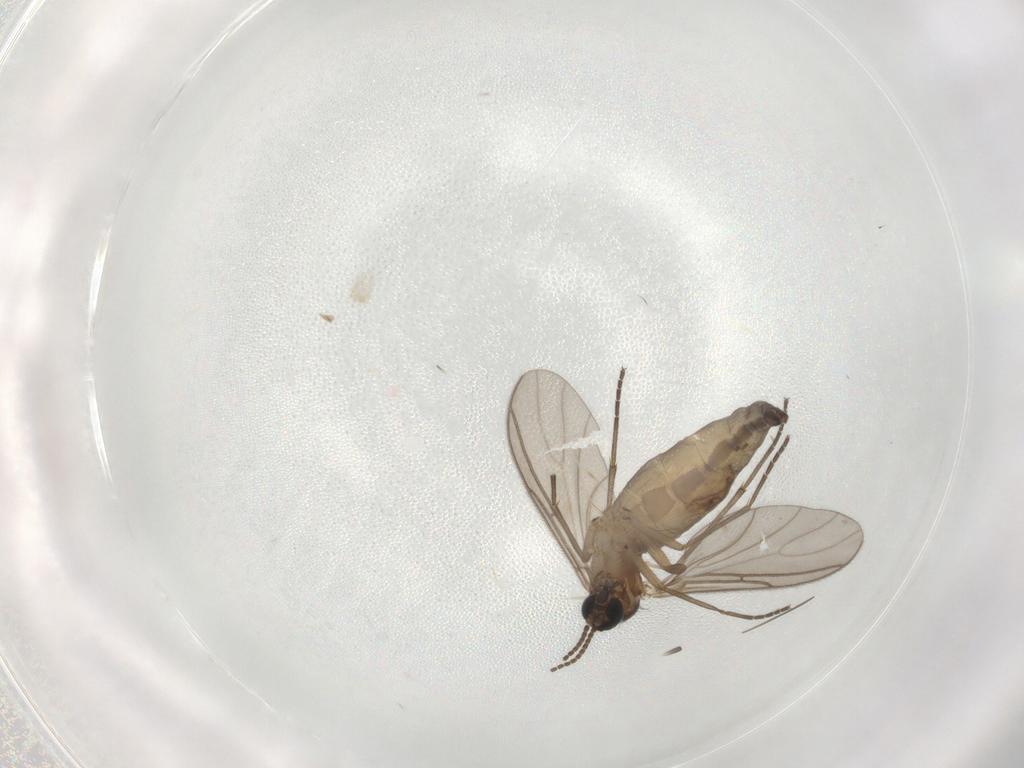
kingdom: Animalia
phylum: Arthropoda
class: Insecta
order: Diptera
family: Sciaridae
